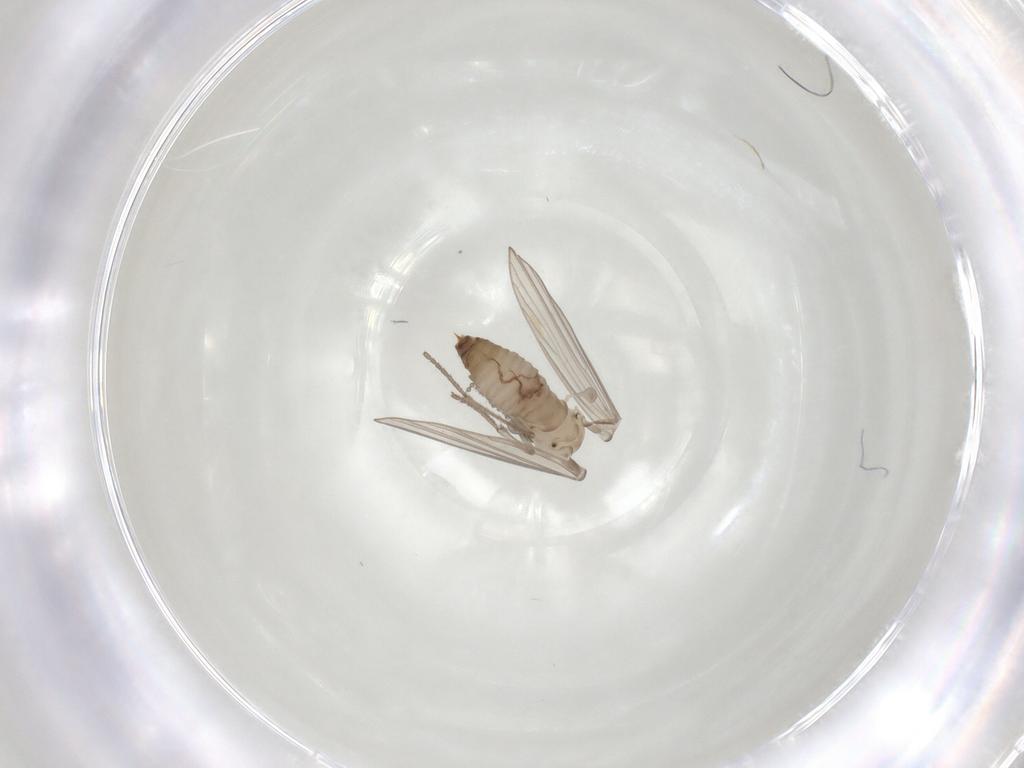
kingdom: Animalia
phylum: Arthropoda
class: Insecta
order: Diptera
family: Psychodidae
